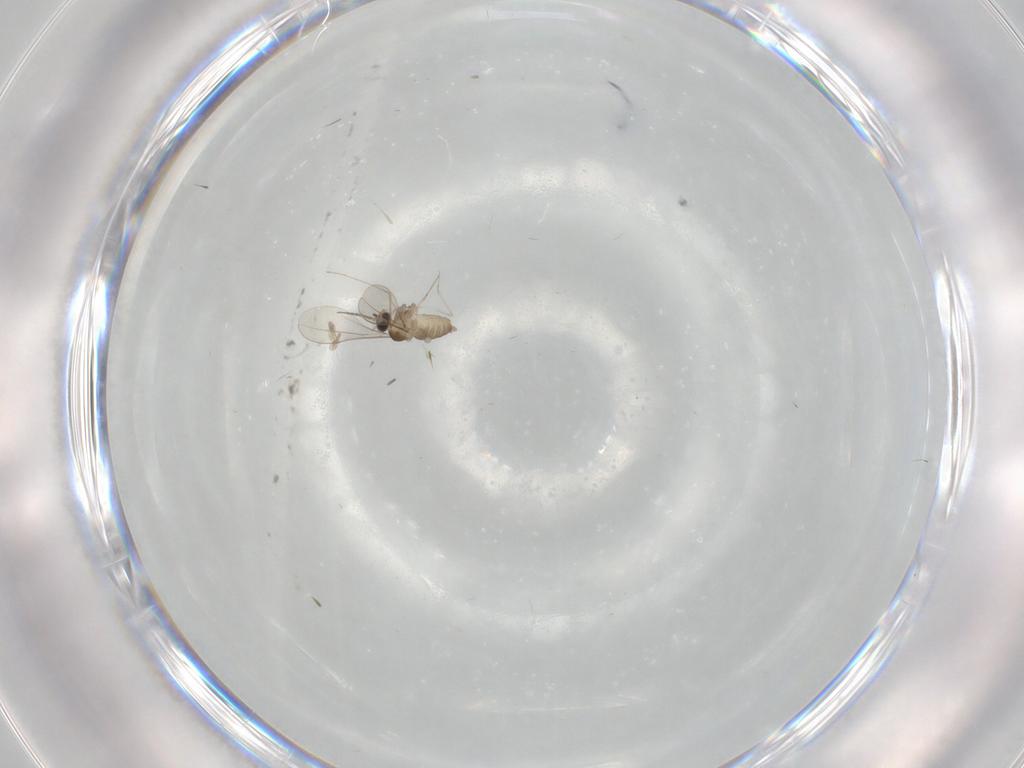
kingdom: Animalia
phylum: Arthropoda
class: Insecta
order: Diptera
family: Cecidomyiidae
